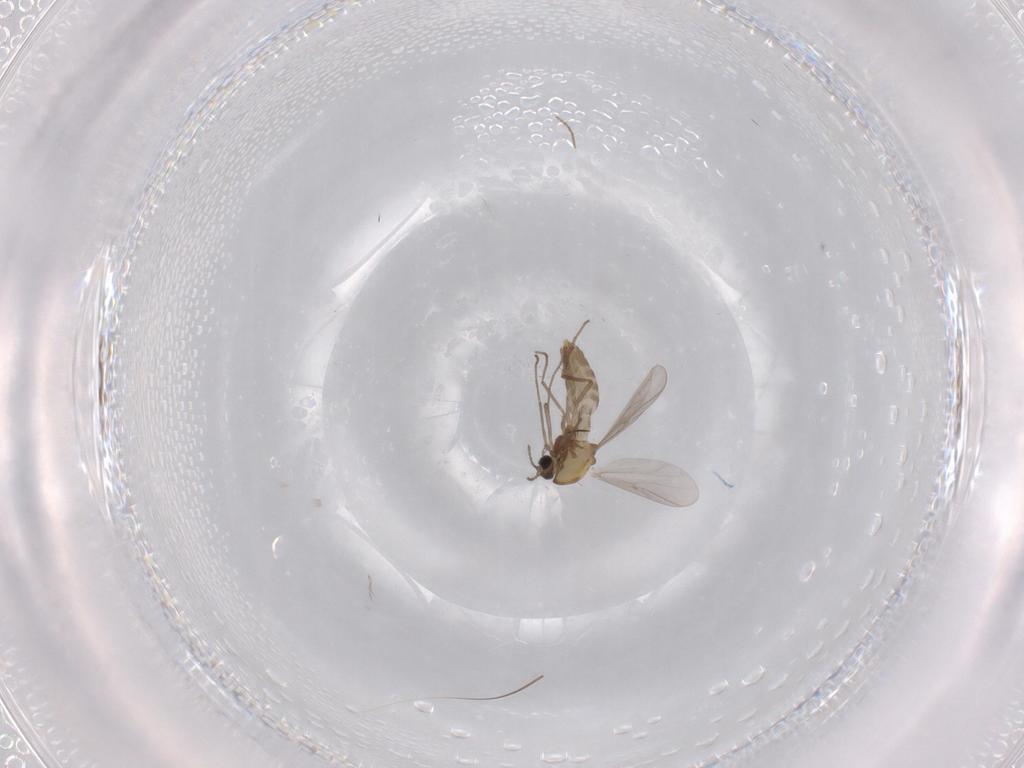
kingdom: Animalia
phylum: Arthropoda
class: Insecta
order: Diptera
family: Chironomidae
